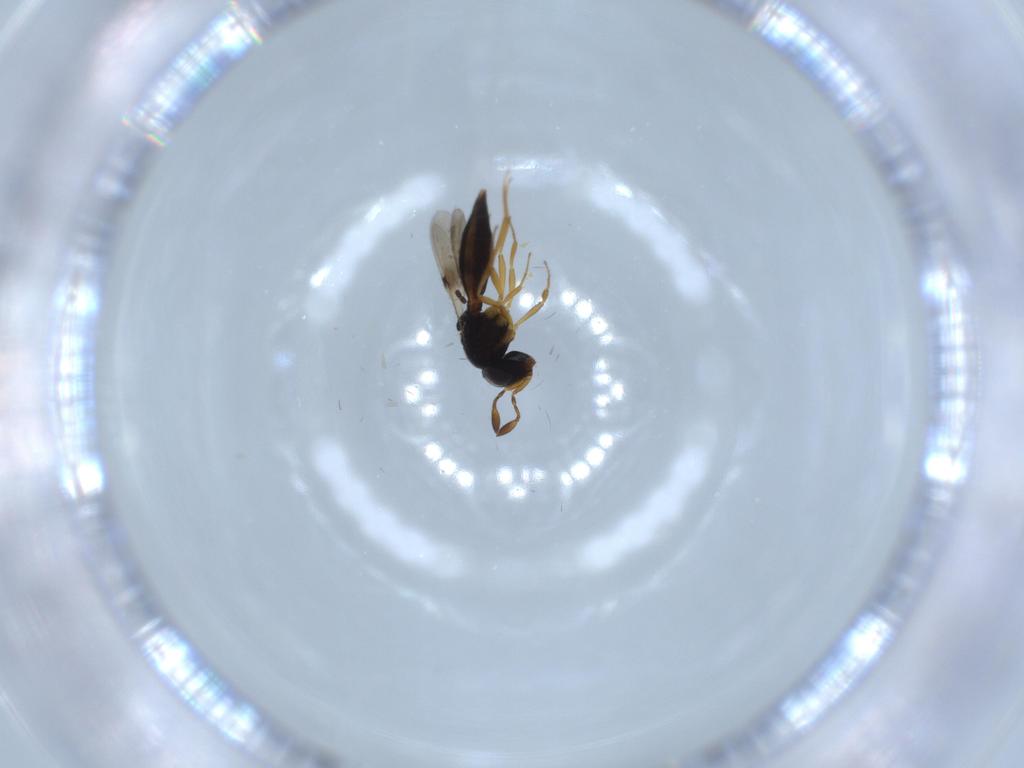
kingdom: Animalia
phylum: Arthropoda
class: Insecta
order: Hymenoptera
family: Platygastridae
